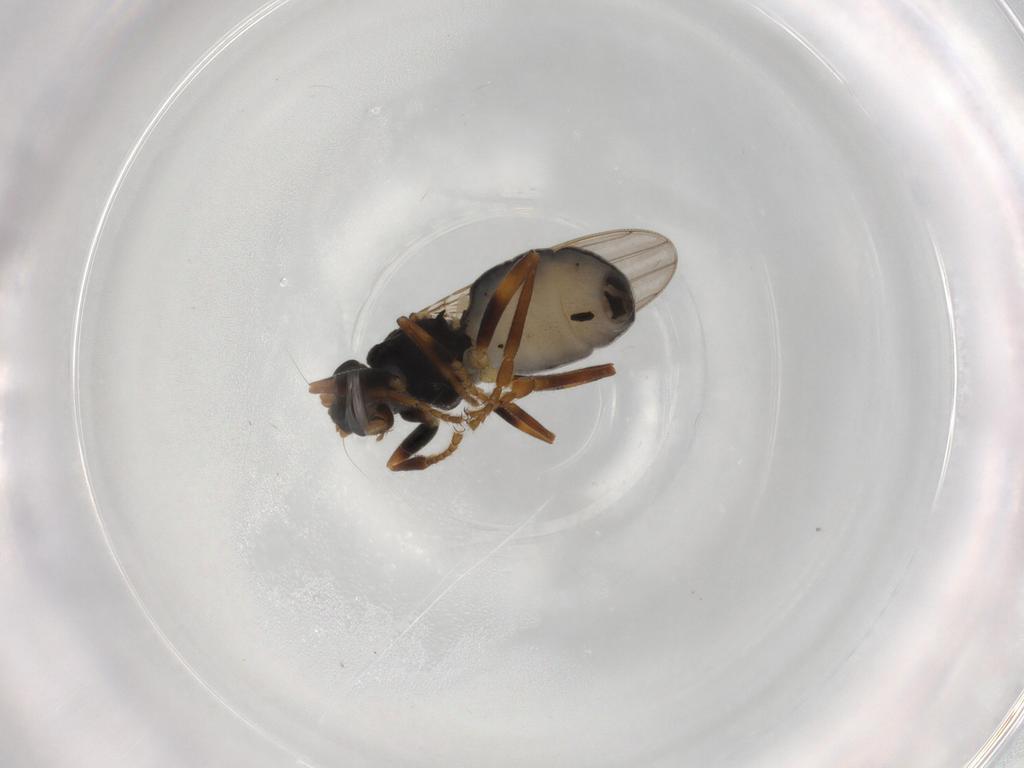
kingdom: Animalia
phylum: Arthropoda
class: Insecta
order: Diptera
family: Sphaeroceridae
